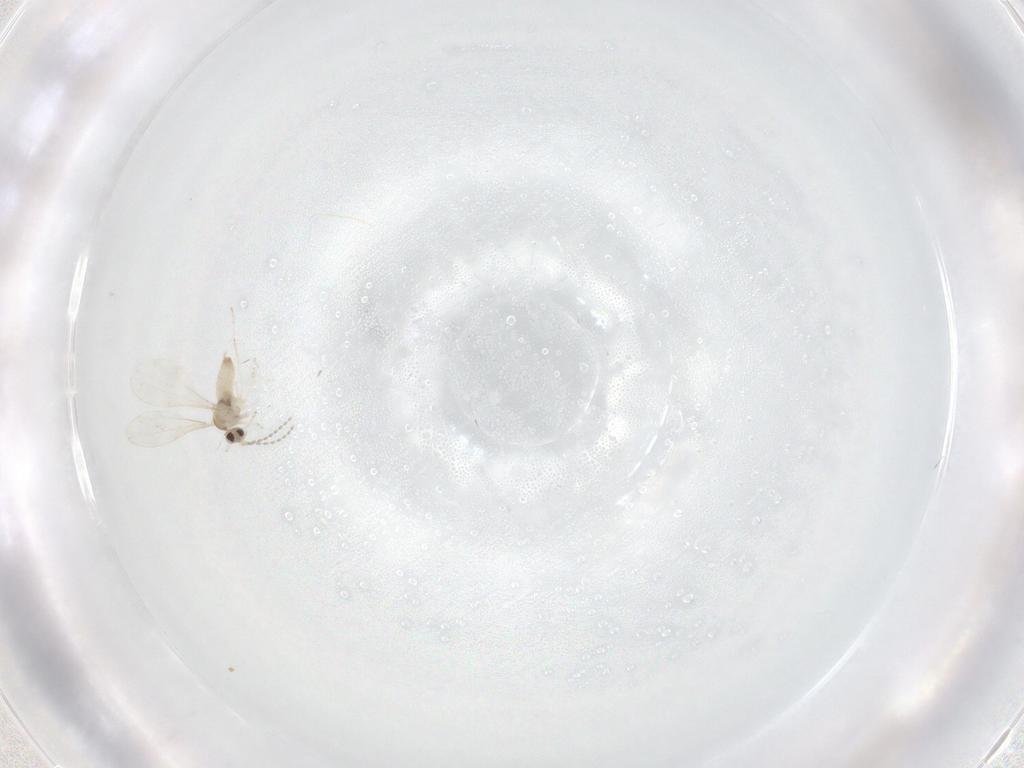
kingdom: Animalia
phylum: Arthropoda
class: Insecta
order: Diptera
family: Cecidomyiidae
